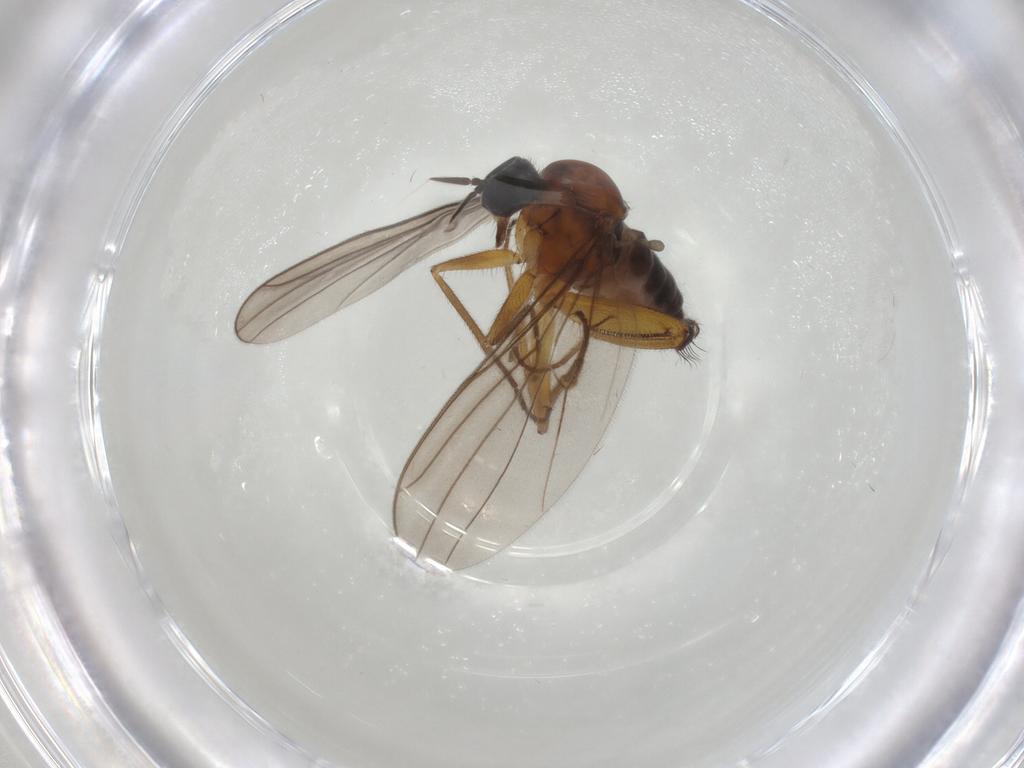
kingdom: Animalia
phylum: Arthropoda
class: Insecta
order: Diptera
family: Hybotidae
